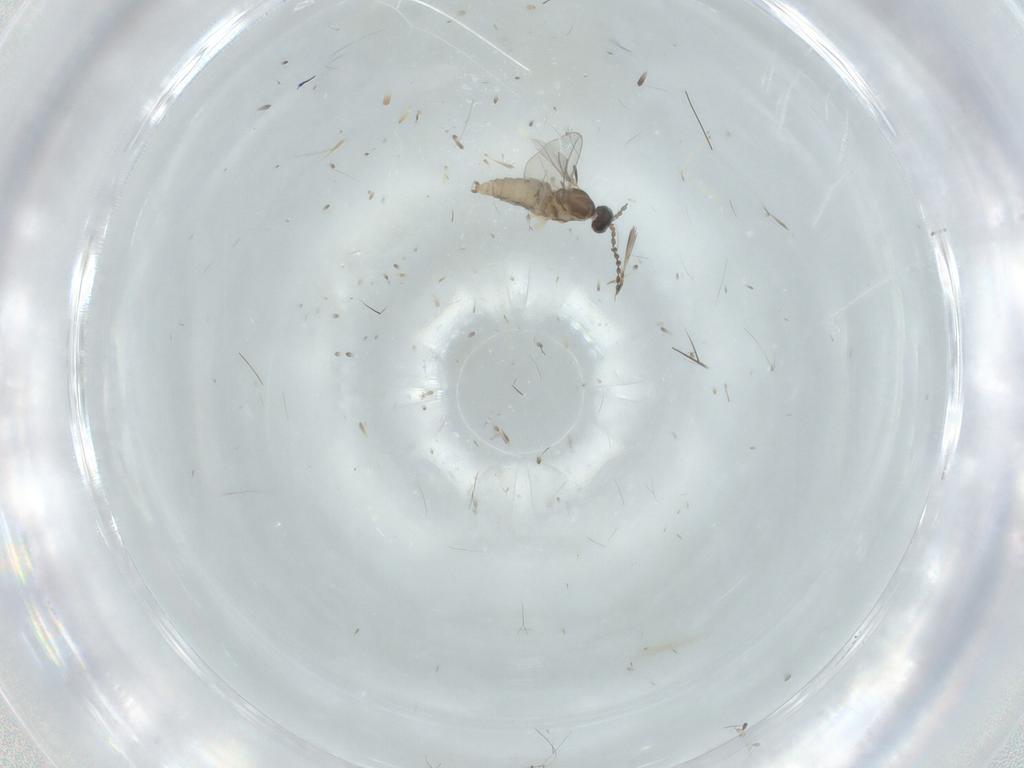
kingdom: Animalia
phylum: Arthropoda
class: Insecta
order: Diptera
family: Cecidomyiidae
